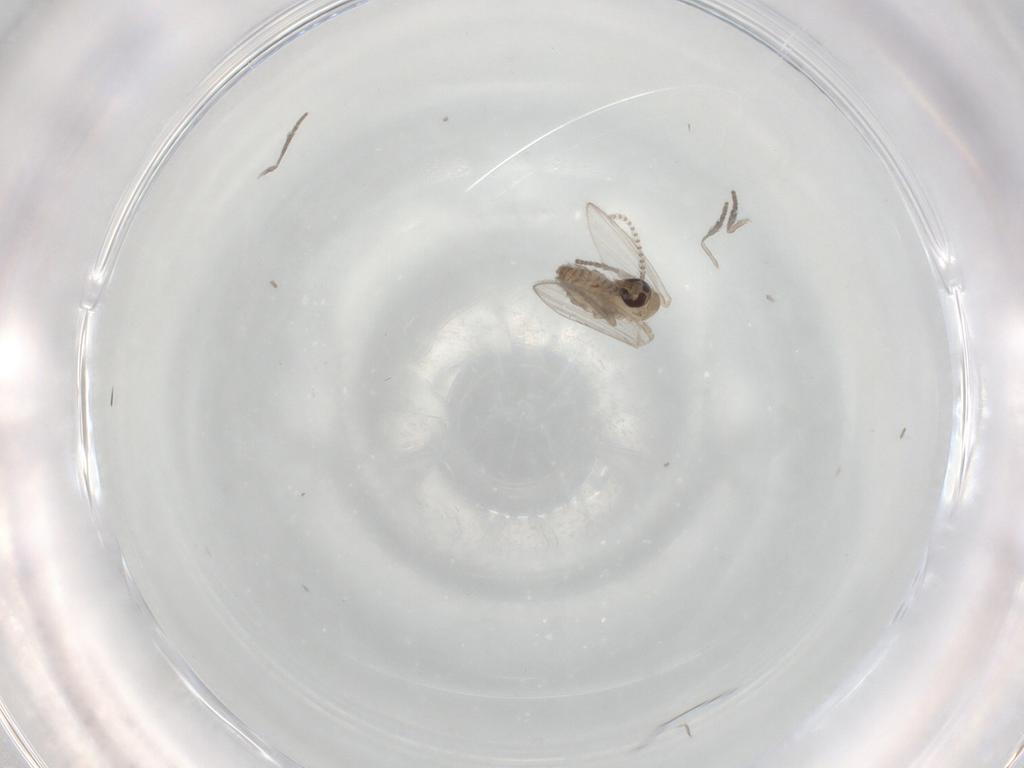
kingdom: Animalia
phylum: Arthropoda
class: Insecta
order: Diptera
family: Psychodidae
